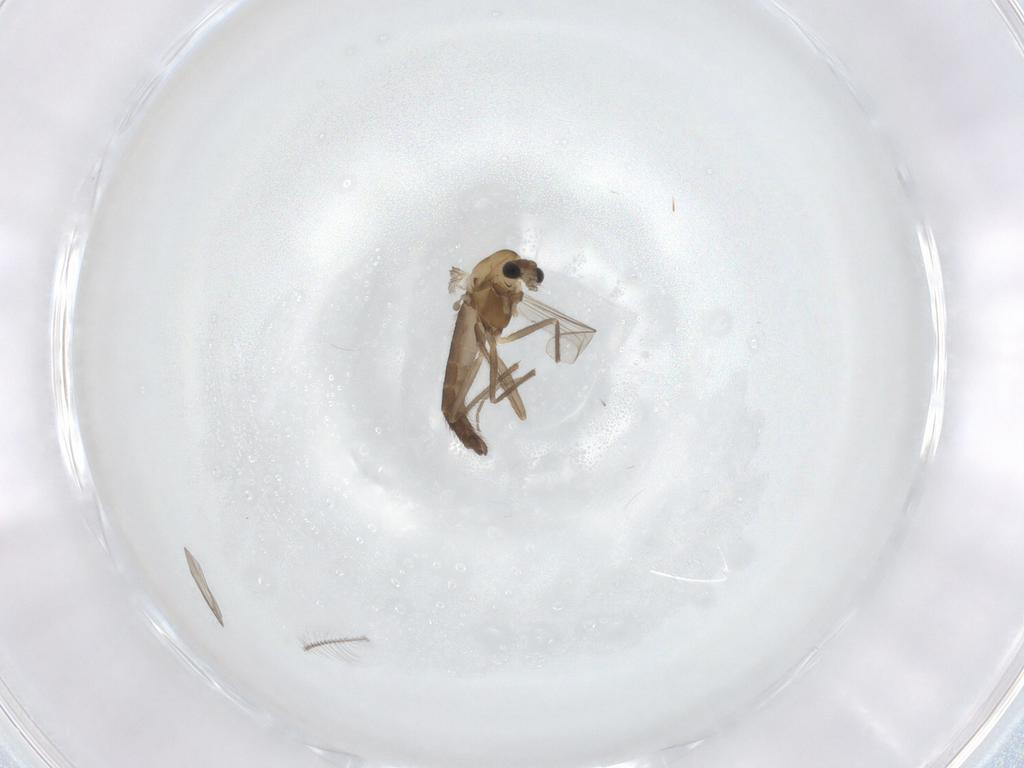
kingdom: Animalia
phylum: Arthropoda
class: Insecta
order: Diptera
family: Chironomidae
